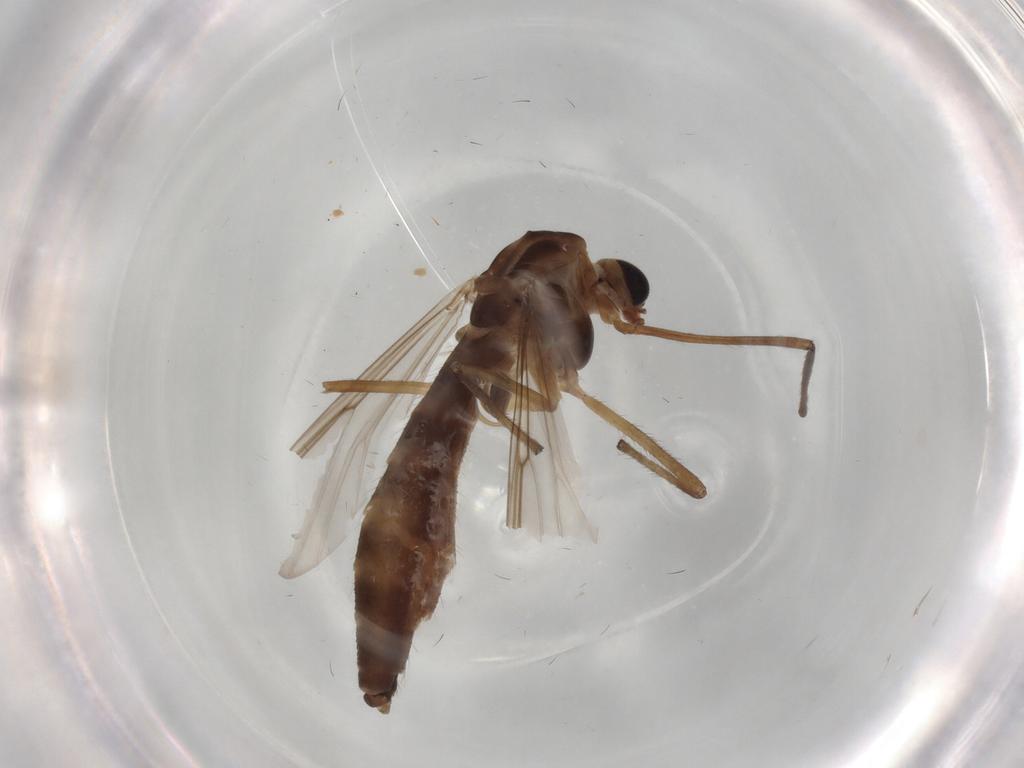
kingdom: Animalia
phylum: Arthropoda
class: Insecta
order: Diptera
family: Chironomidae
